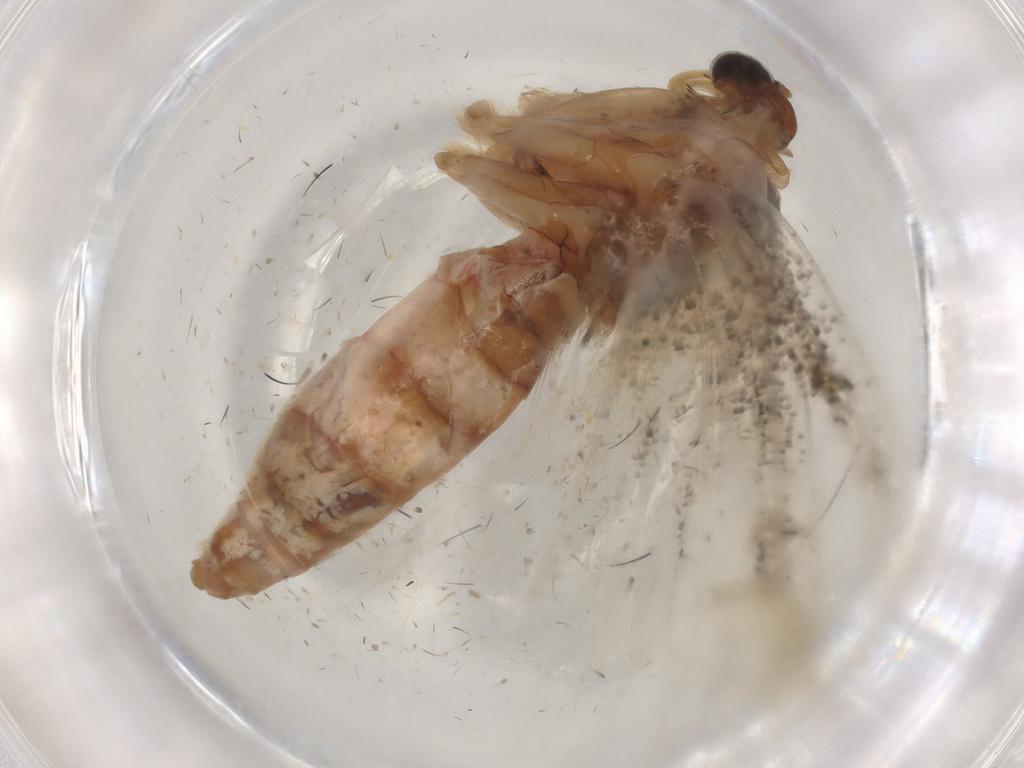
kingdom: Animalia
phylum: Arthropoda
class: Insecta
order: Lepidoptera
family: Geometridae
